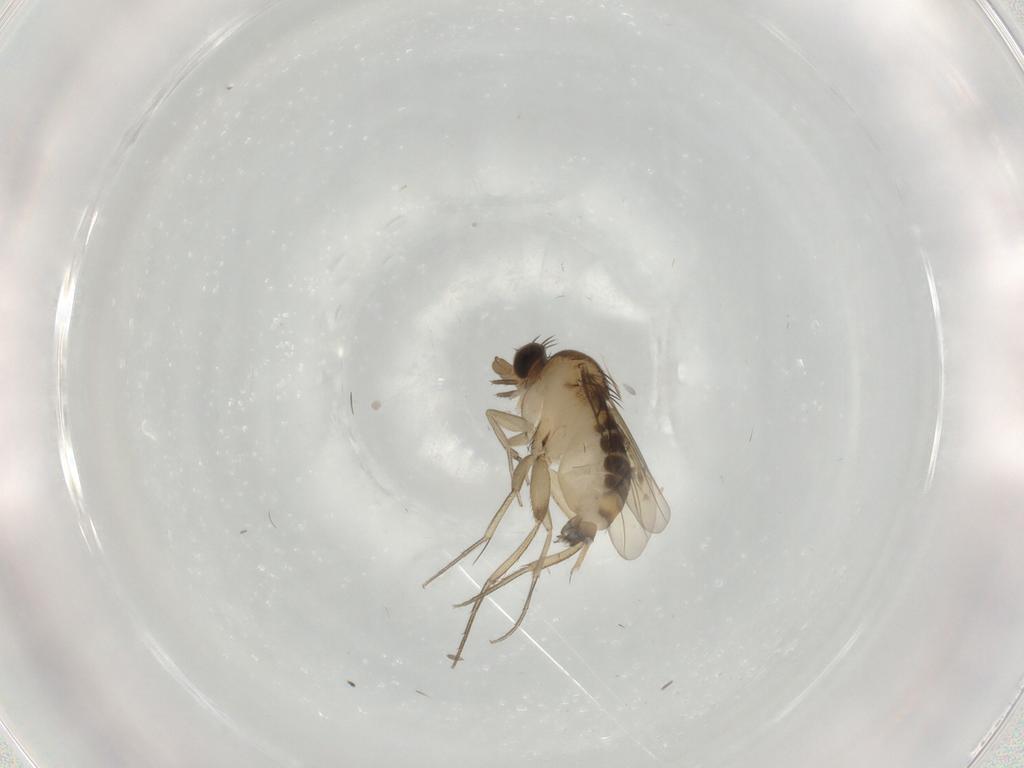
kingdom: Animalia
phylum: Arthropoda
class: Insecta
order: Diptera
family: Phoridae
